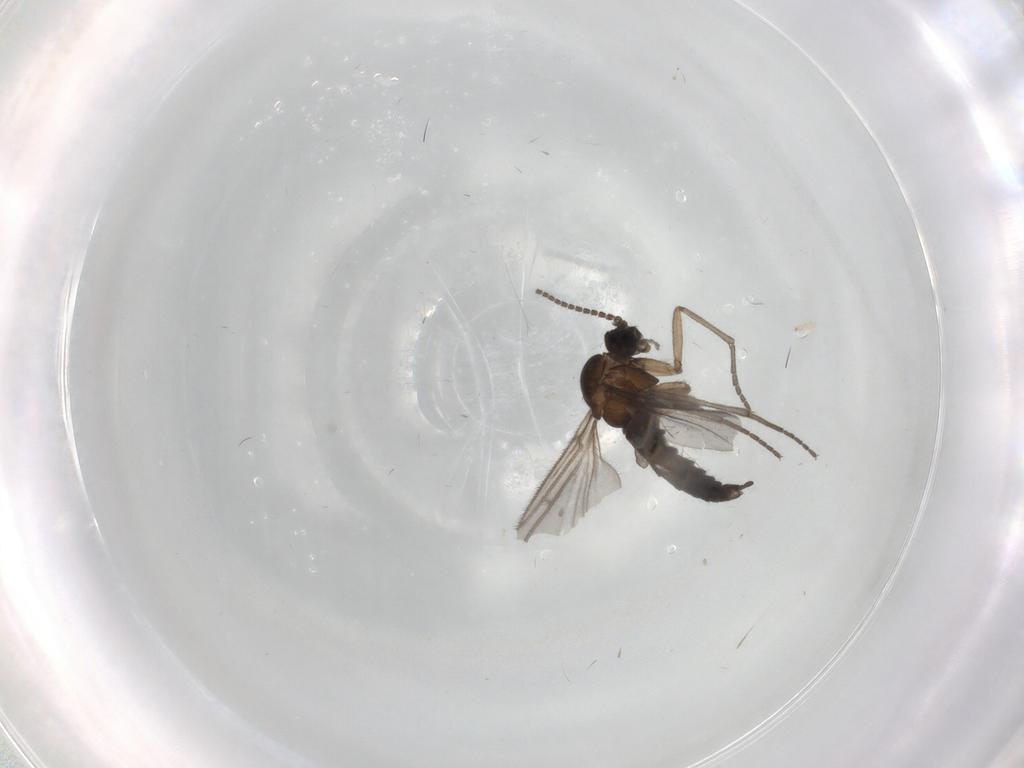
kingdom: Animalia
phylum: Arthropoda
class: Insecta
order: Diptera
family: Sciaridae
